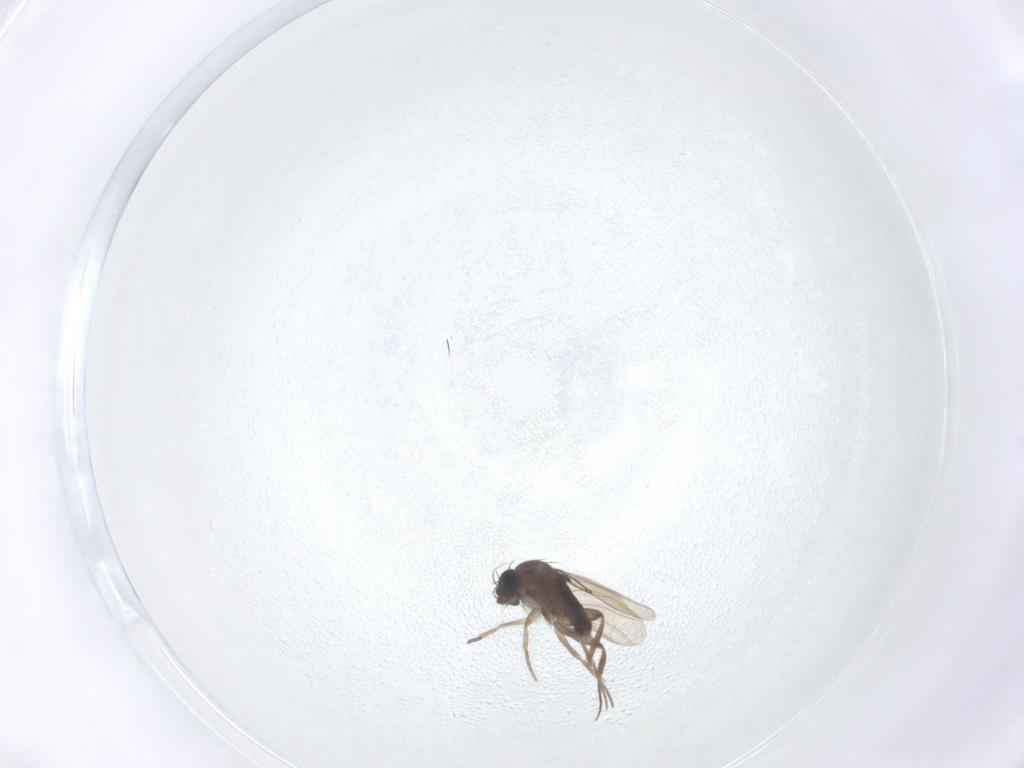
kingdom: Animalia
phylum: Arthropoda
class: Insecta
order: Diptera
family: Phoridae
